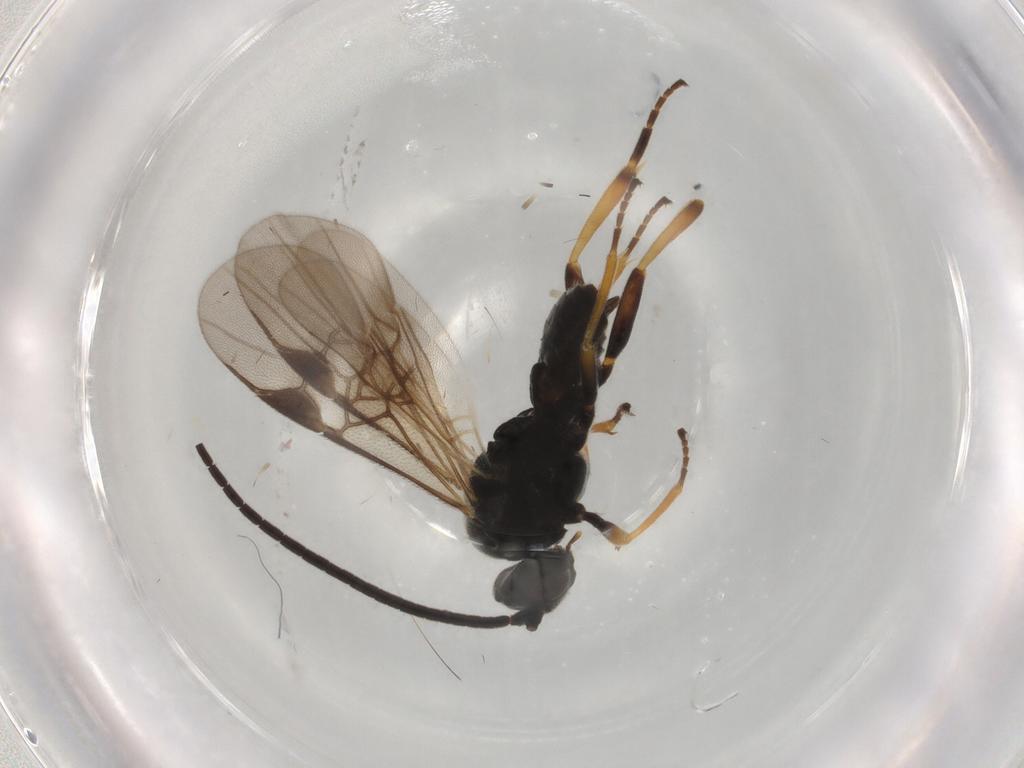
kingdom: Animalia
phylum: Arthropoda
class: Insecta
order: Hymenoptera
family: Braconidae
